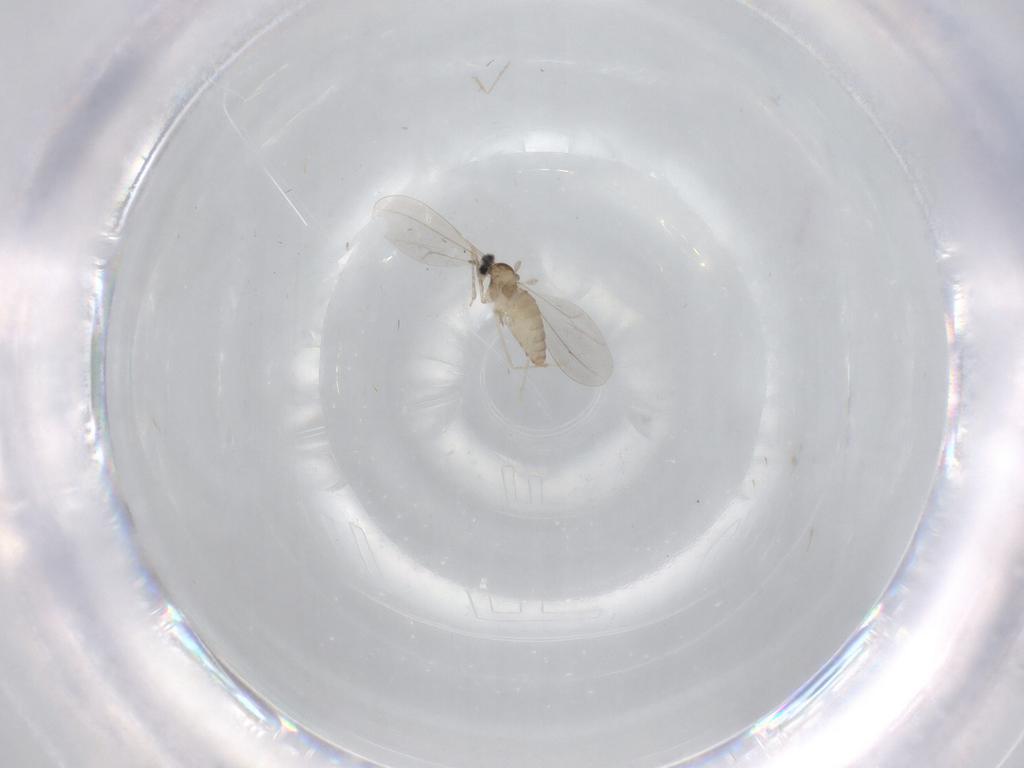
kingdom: Animalia
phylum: Arthropoda
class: Insecta
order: Diptera
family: Cecidomyiidae
